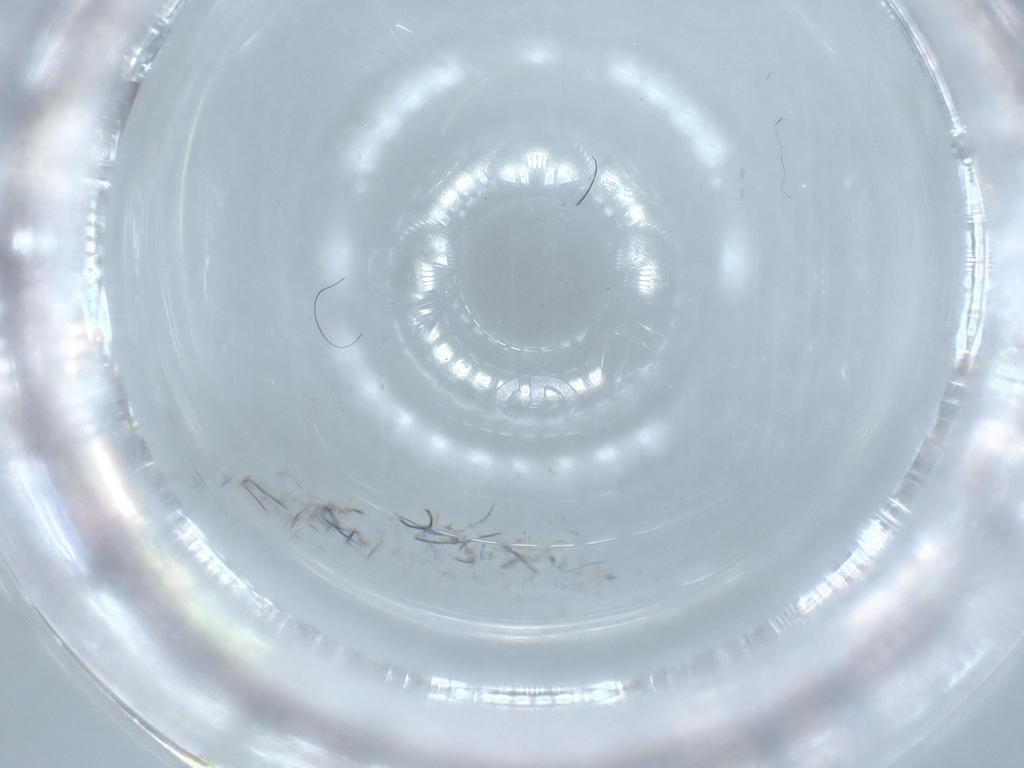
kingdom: Animalia
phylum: Arthropoda
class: Insecta
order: Diptera
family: Cecidomyiidae
